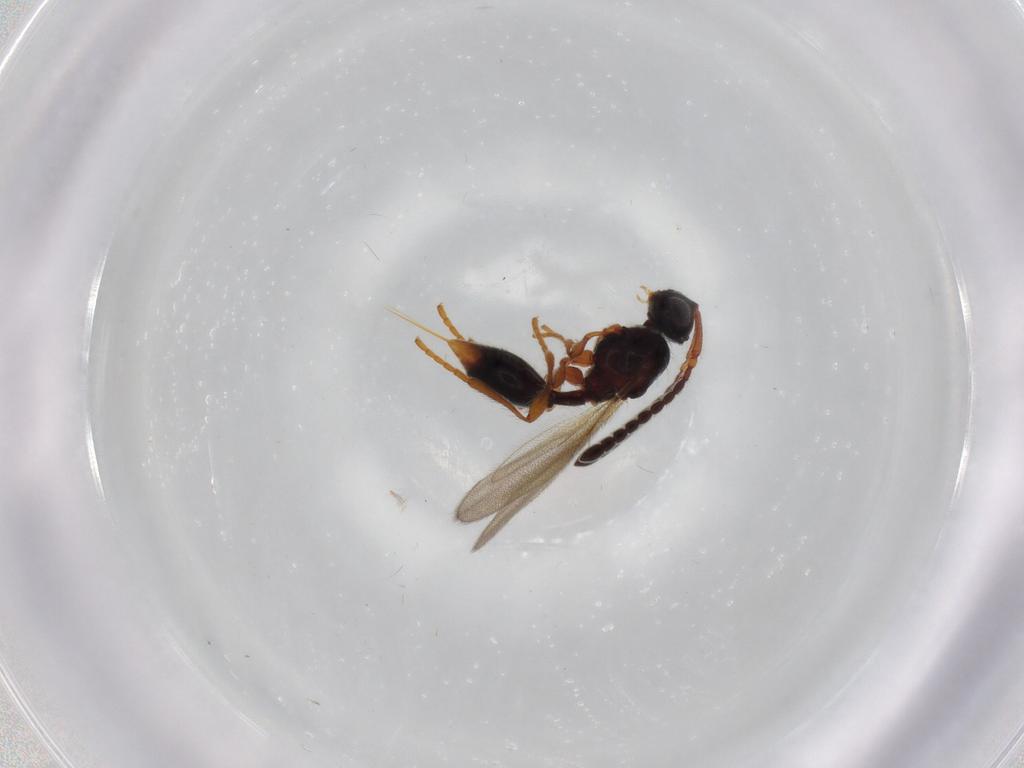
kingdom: Animalia
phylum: Arthropoda
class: Insecta
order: Hymenoptera
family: Diapriidae
